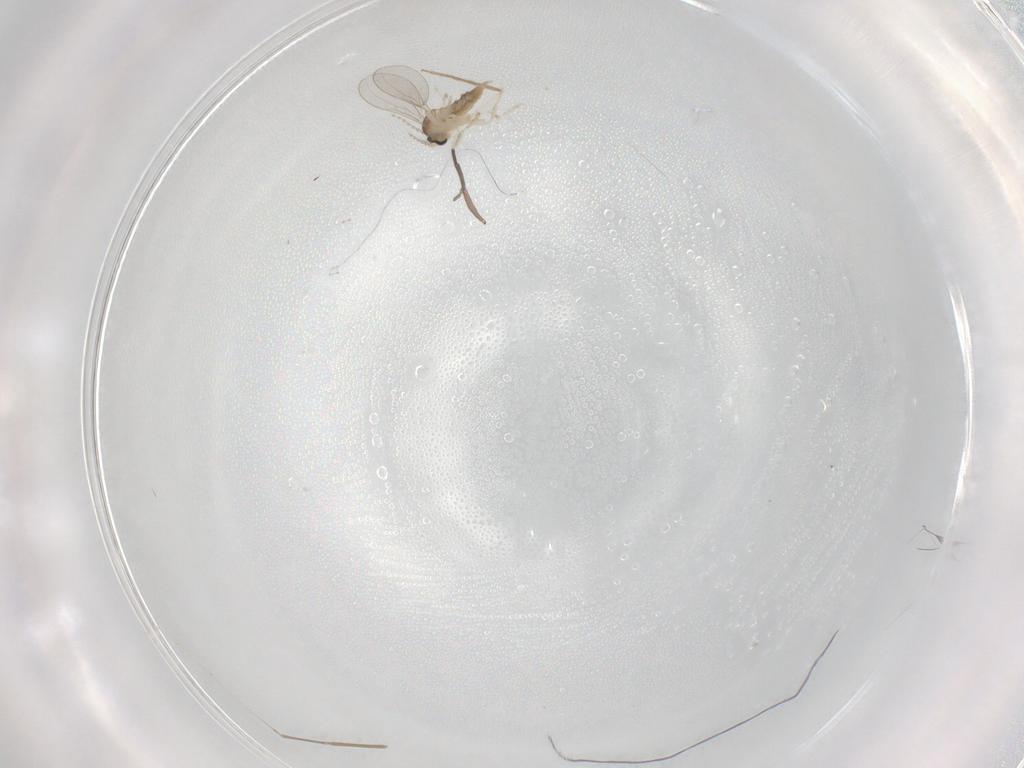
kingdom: Animalia
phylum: Arthropoda
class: Insecta
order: Diptera
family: Sciaridae
